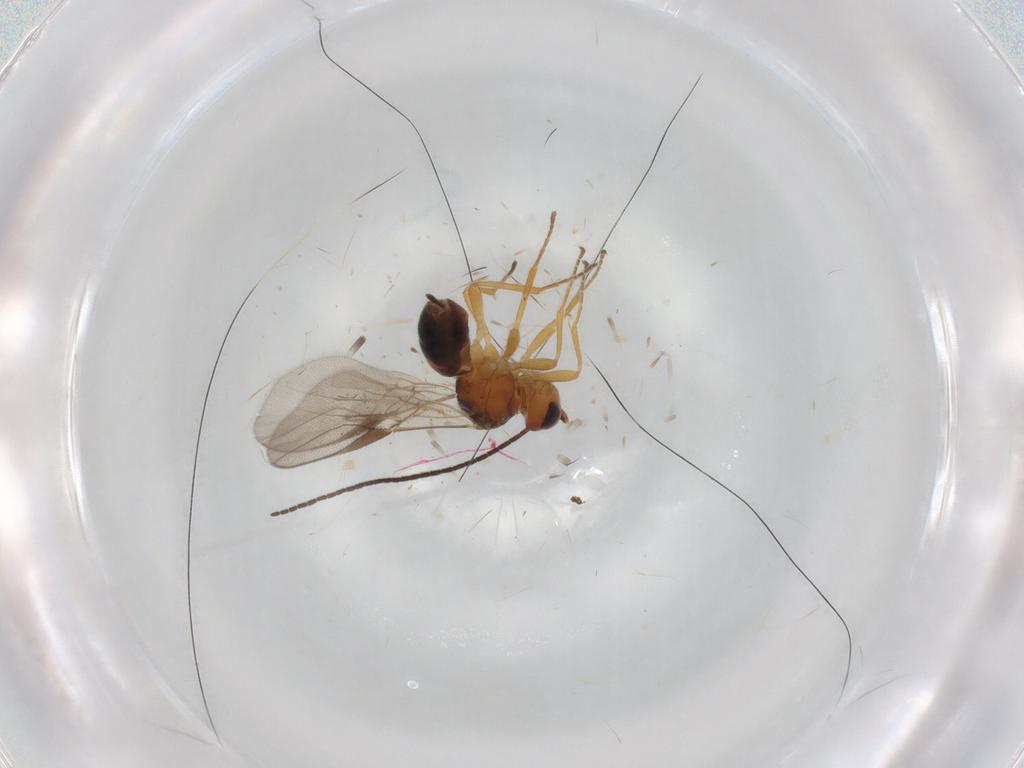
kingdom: Animalia
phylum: Arthropoda
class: Insecta
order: Hymenoptera
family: Braconidae
